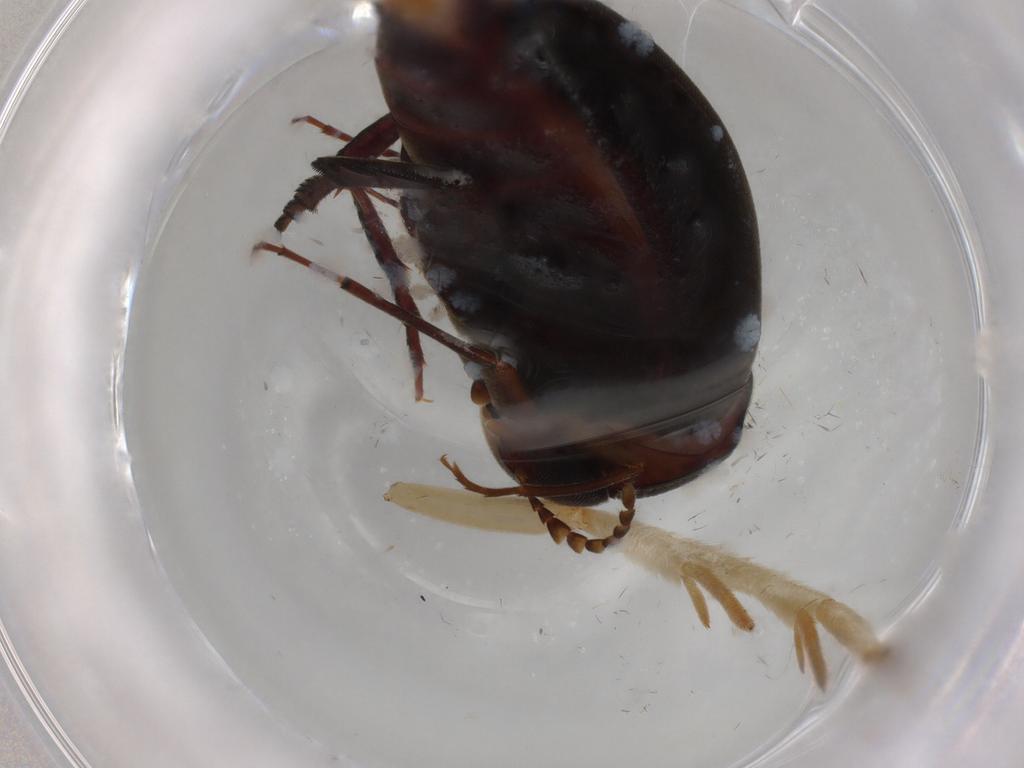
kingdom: Animalia
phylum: Arthropoda
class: Insecta
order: Coleoptera
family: Mordellidae
